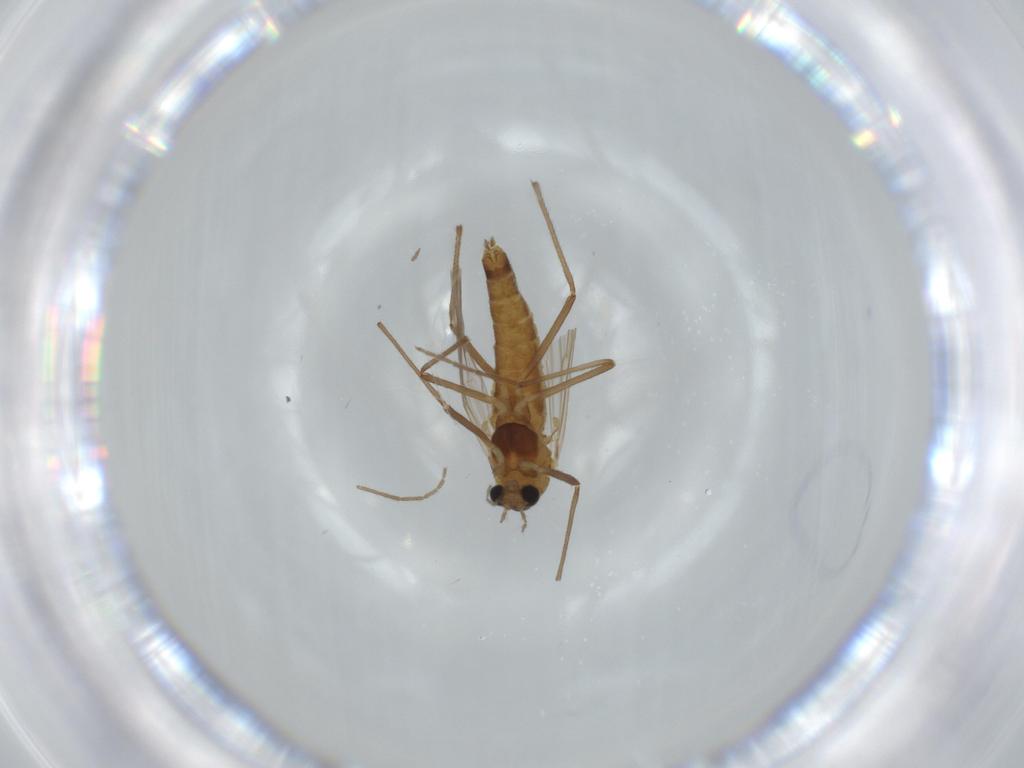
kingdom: Animalia
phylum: Arthropoda
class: Insecta
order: Diptera
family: Chironomidae
